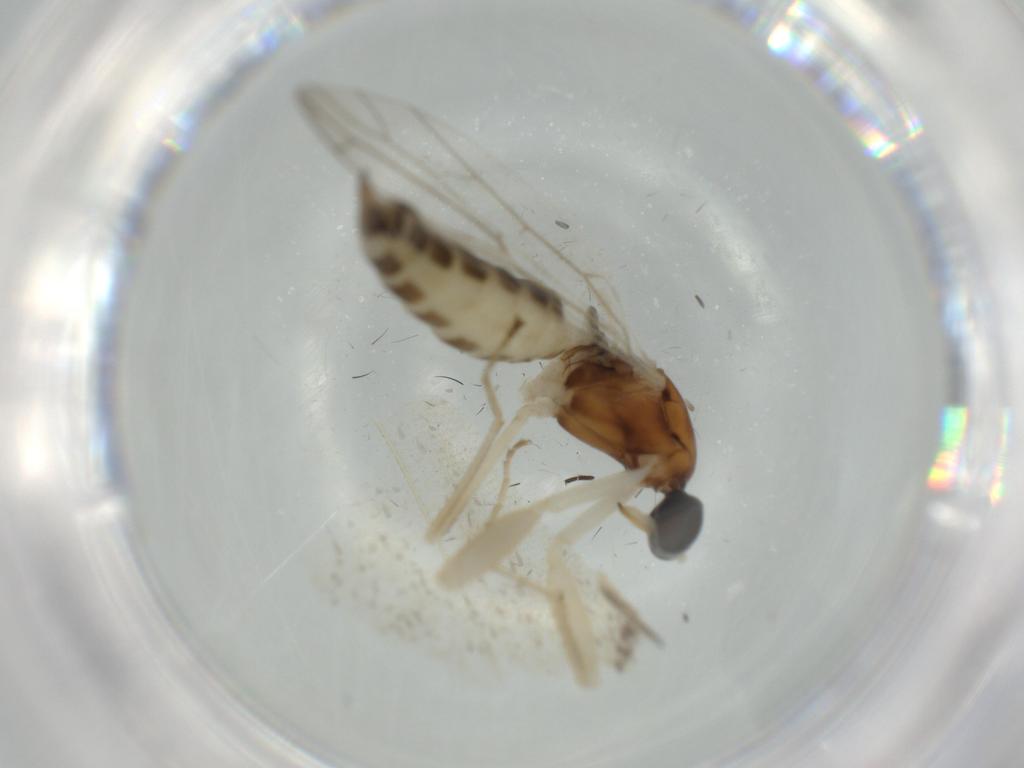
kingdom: Animalia
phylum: Arthropoda
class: Insecta
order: Diptera
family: Empididae
